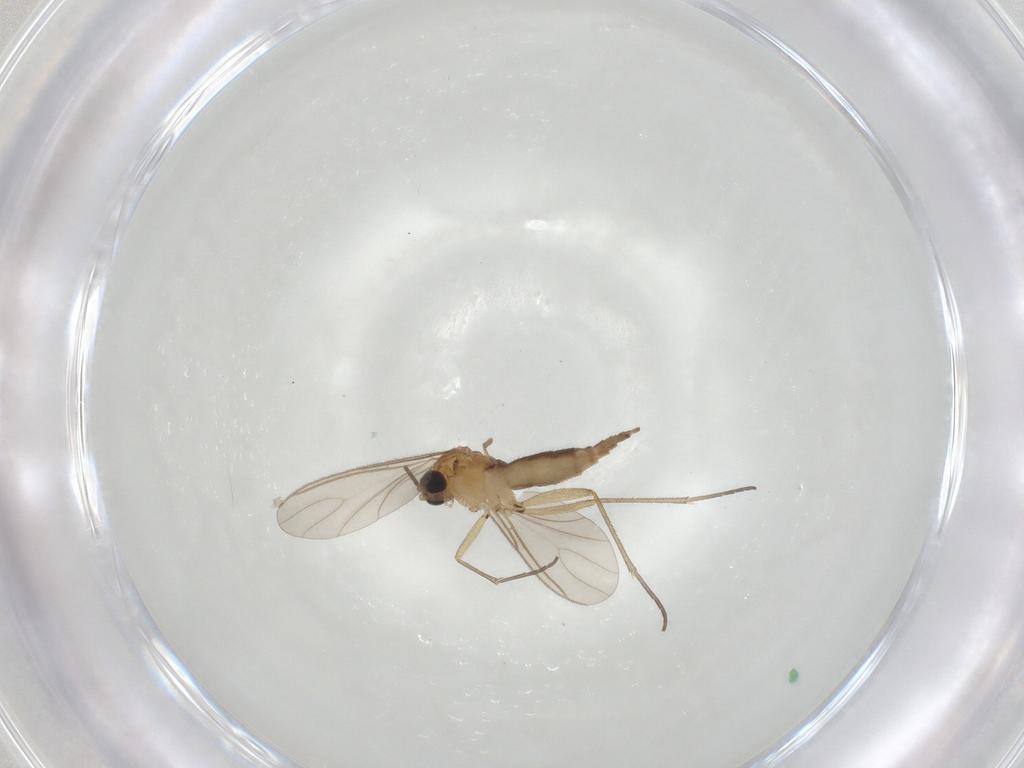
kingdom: Animalia
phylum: Arthropoda
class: Insecta
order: Diptera
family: Sciaridae
